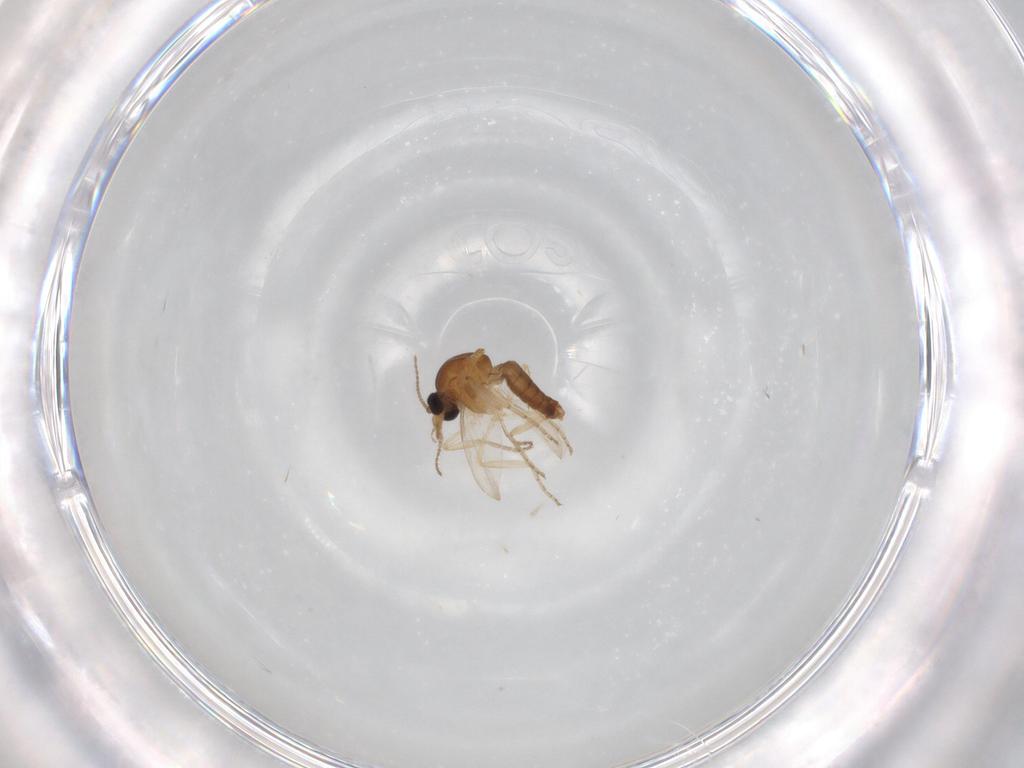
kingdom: Animalia
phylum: Arthropoda
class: Insecta
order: Diptera
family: Ceratopogonidae
